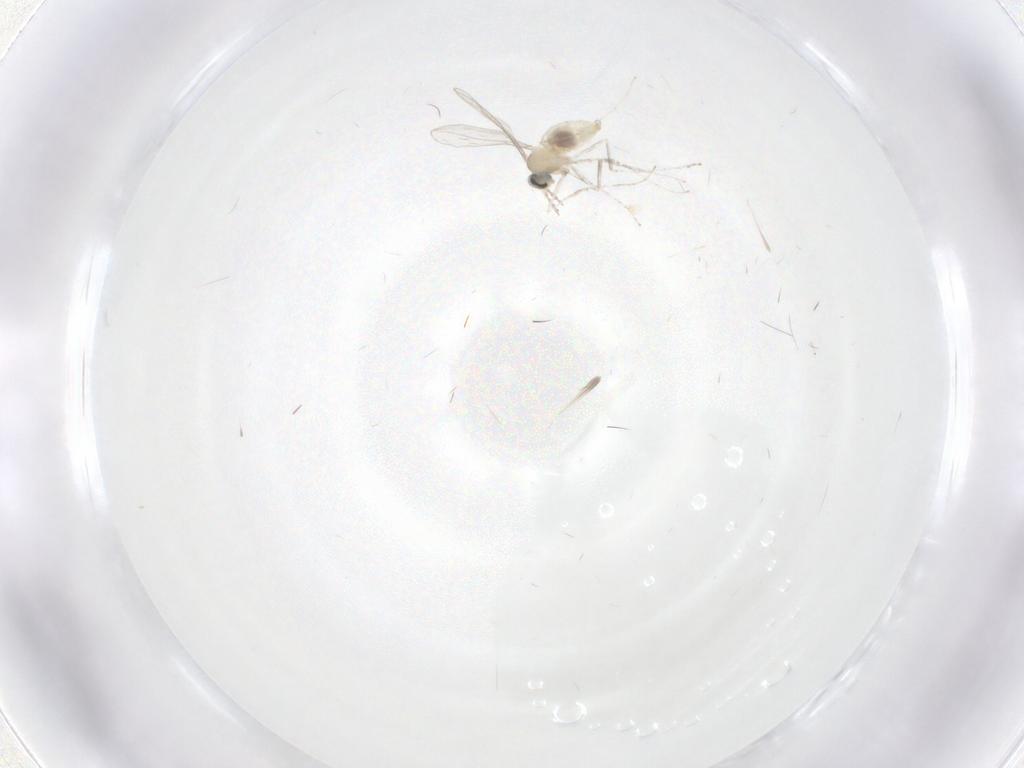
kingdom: Animalia
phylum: Arthropoda
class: Insecta
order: Diptera
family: Cecidomyiidae
